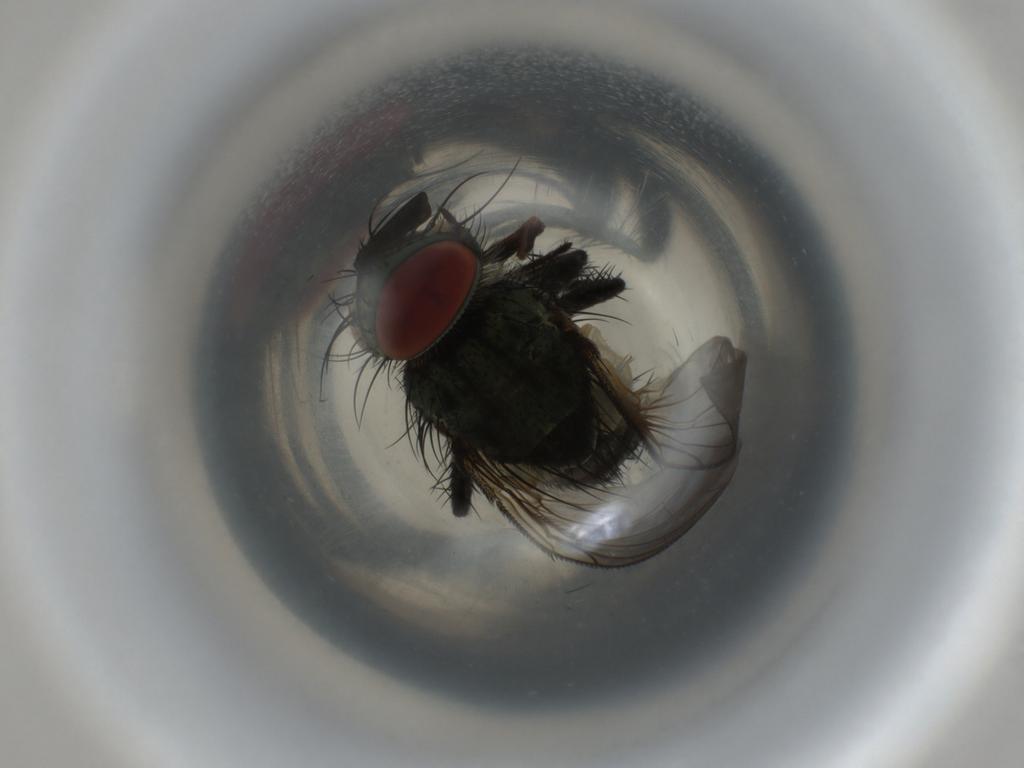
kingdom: Animalia
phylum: Arthropoda
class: Insecta
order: Diptera
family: Tachinidae
